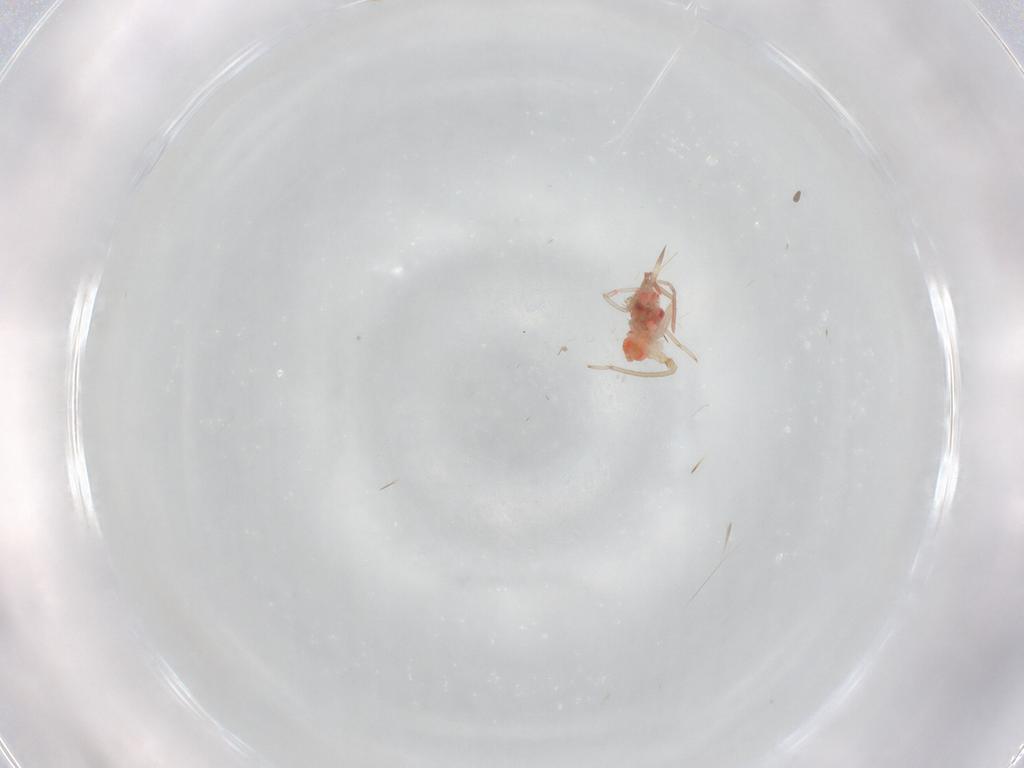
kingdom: Animalia
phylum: Arthropoda
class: Insecta
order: Hemiptera
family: Miridae
